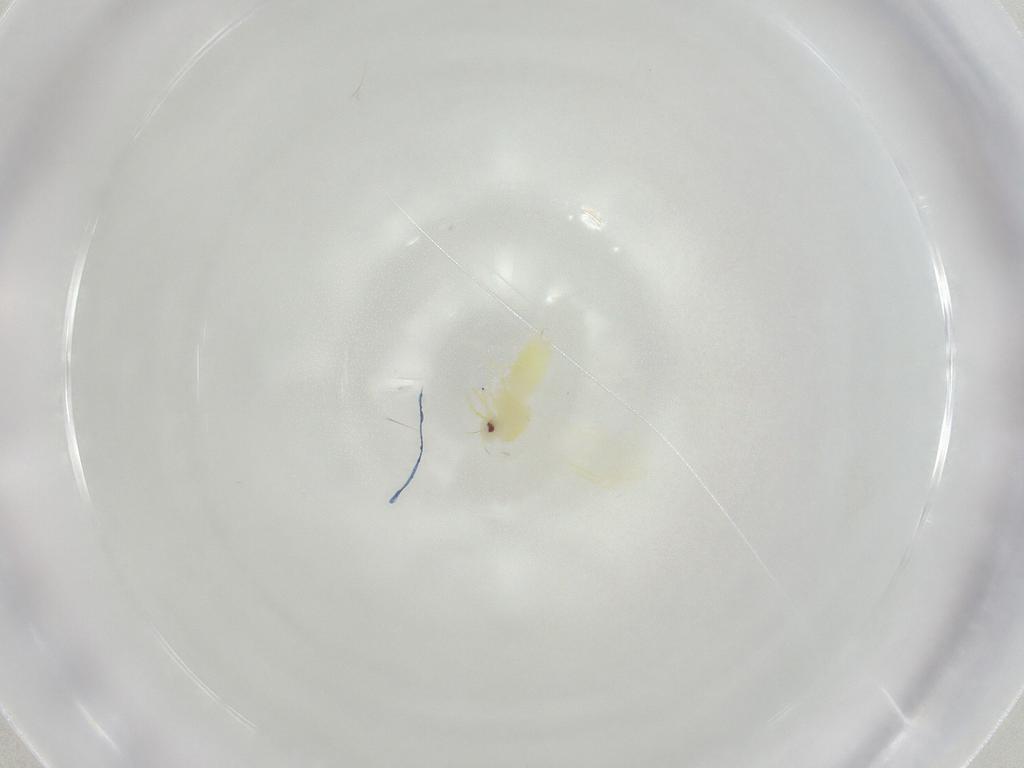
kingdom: Animalia
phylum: Arthropoda
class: Insecta
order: Hemiptera
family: Aleyrodidae
